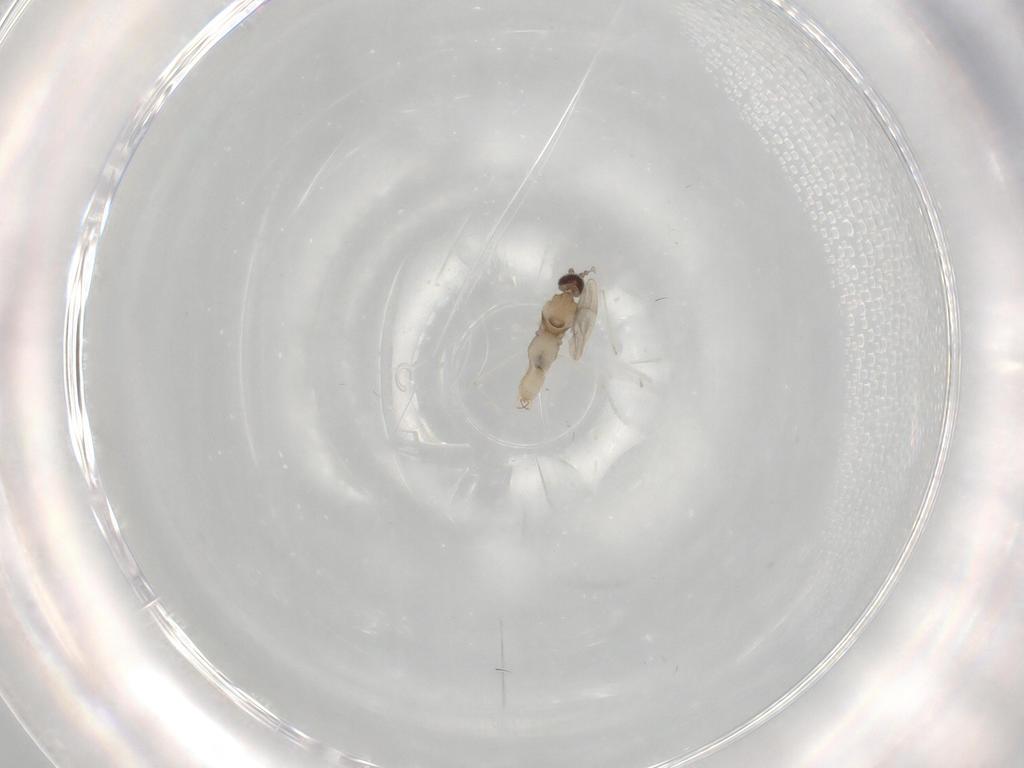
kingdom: Animalia
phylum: Arthropoda
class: Insecta
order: Diptera
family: Cecidomyiidae
